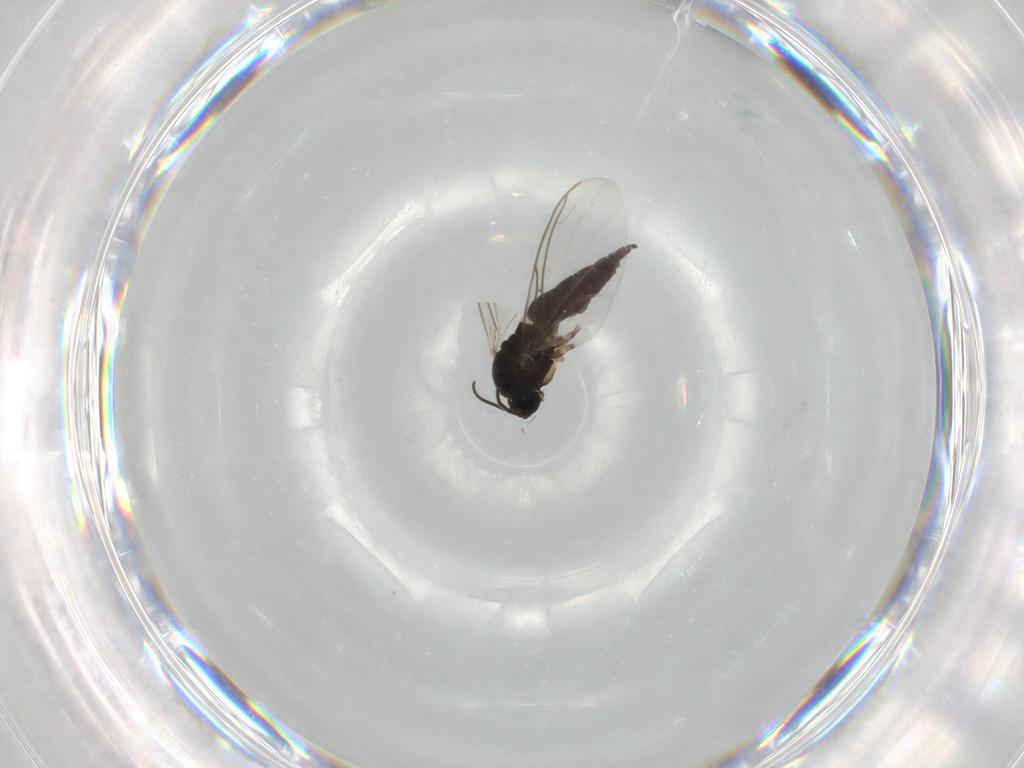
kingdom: Animalia
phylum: Arthropoda
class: Insecta
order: Diptera
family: Sciaridae
